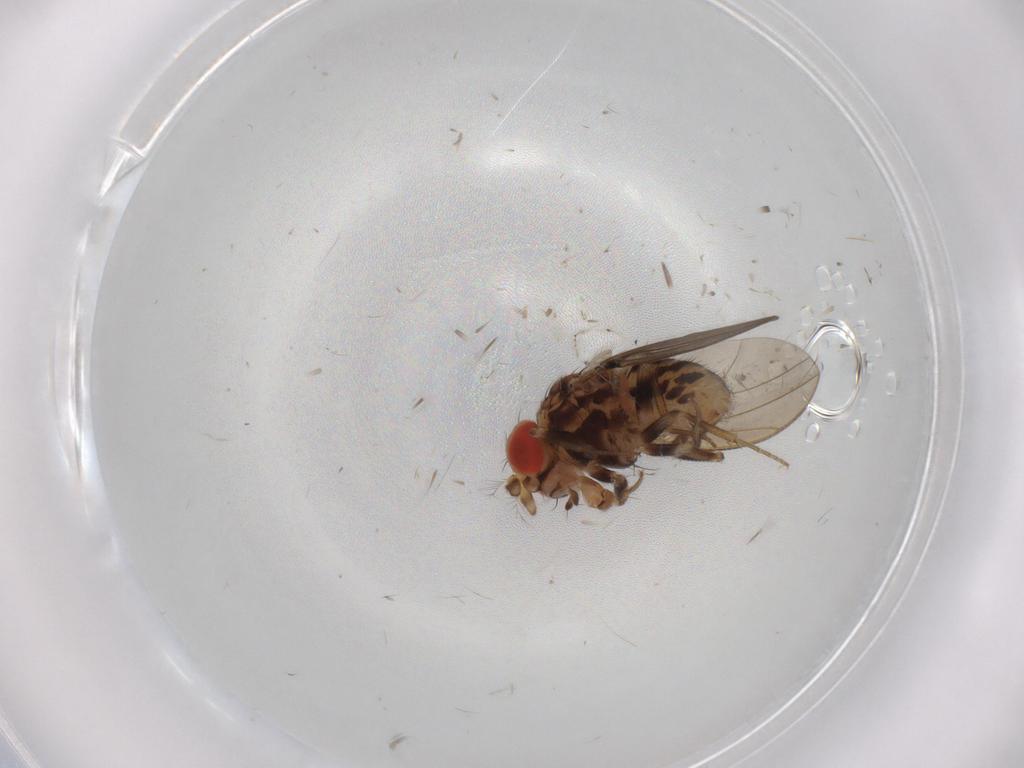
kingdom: Animalia
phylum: Arthropoda
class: Insecta
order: Diptera
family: Drosophilidae
